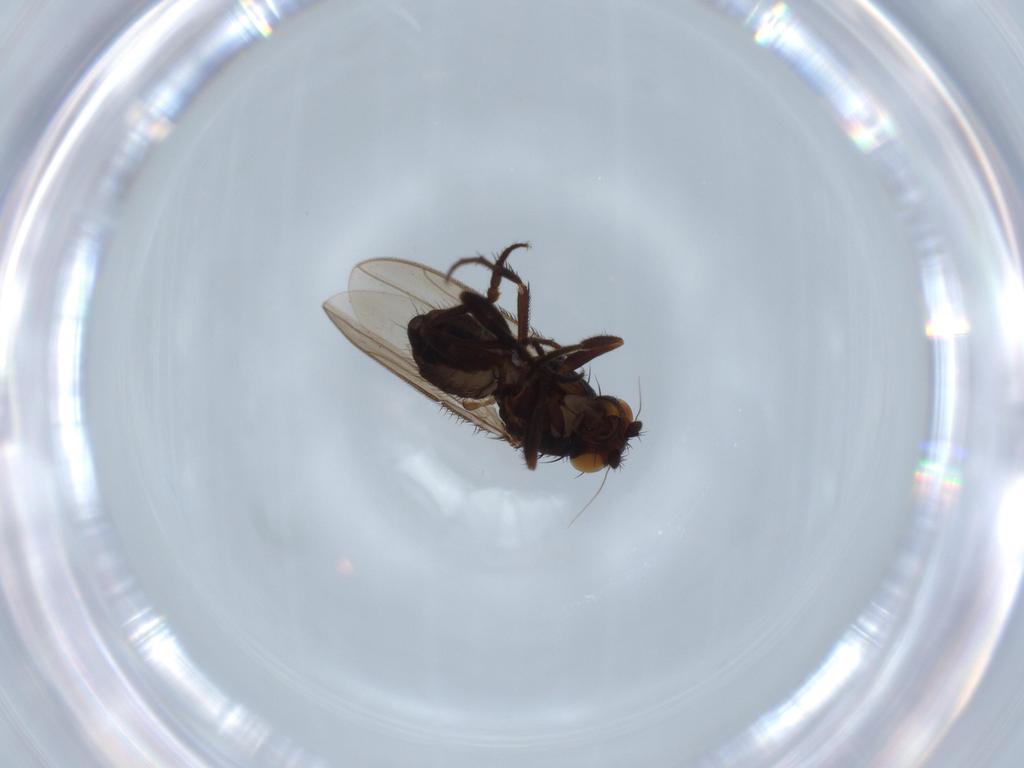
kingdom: Animalia
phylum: Arthropoda
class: Insecta
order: Diptera
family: Sphaeroceridae
